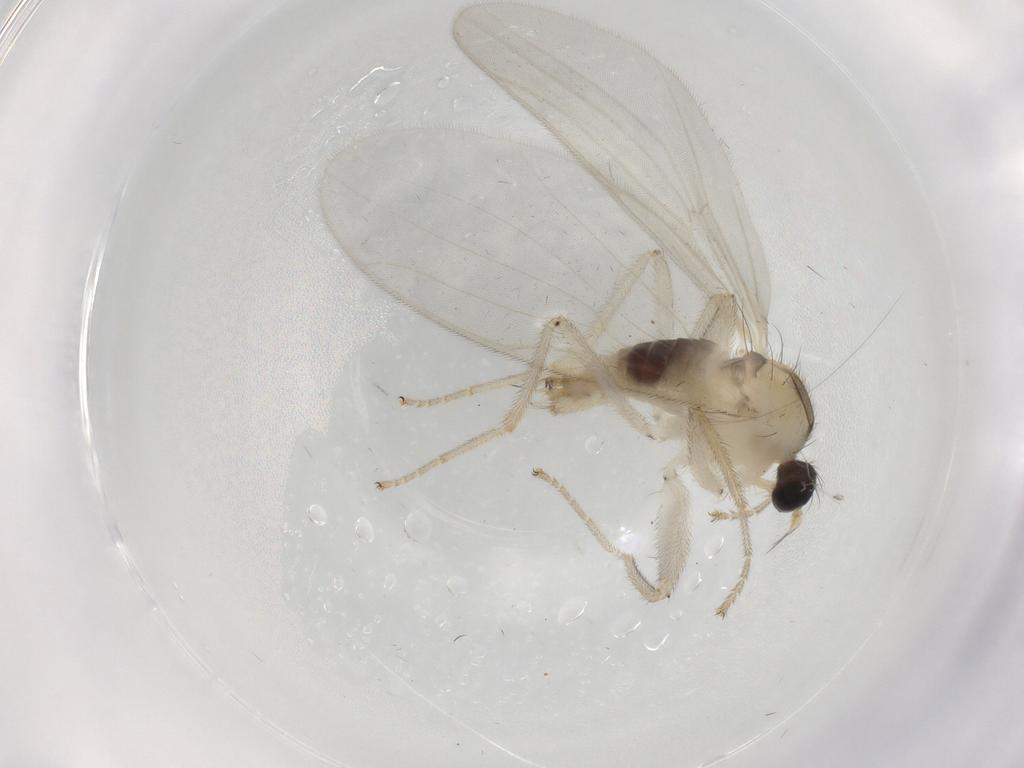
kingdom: Animalia
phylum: Arthropoda
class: Insecta
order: Diptera
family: Hybotidae
